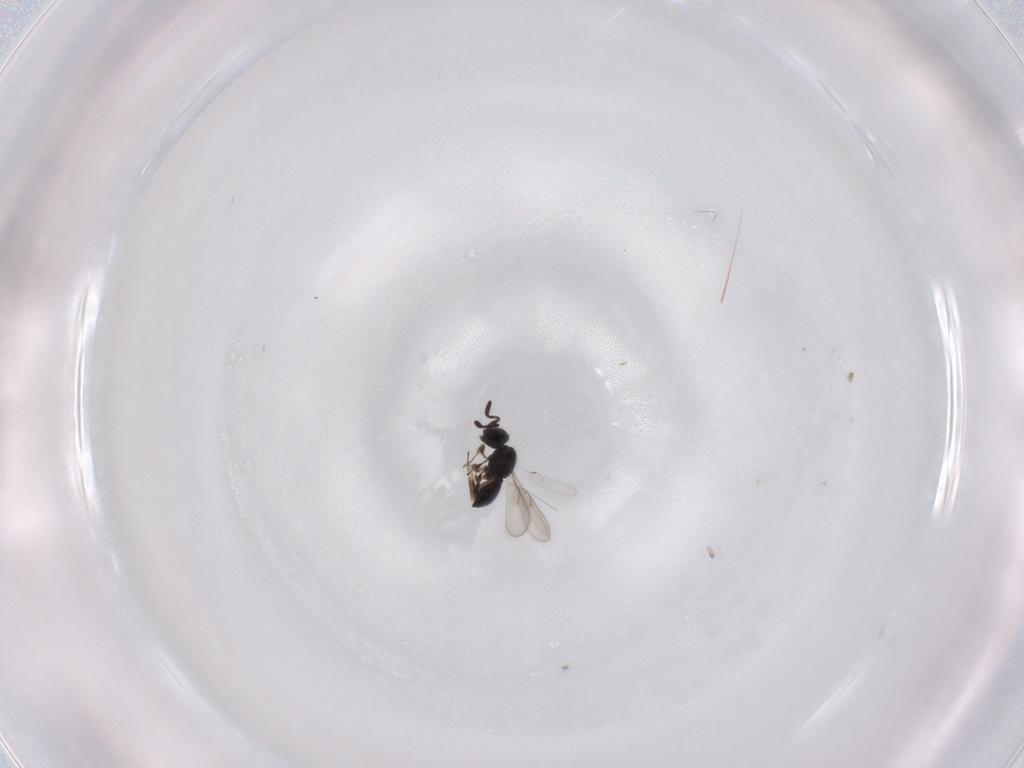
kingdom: Animalia
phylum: Arthropoda
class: Insecta
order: Hymenoptera
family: Scelionidae
